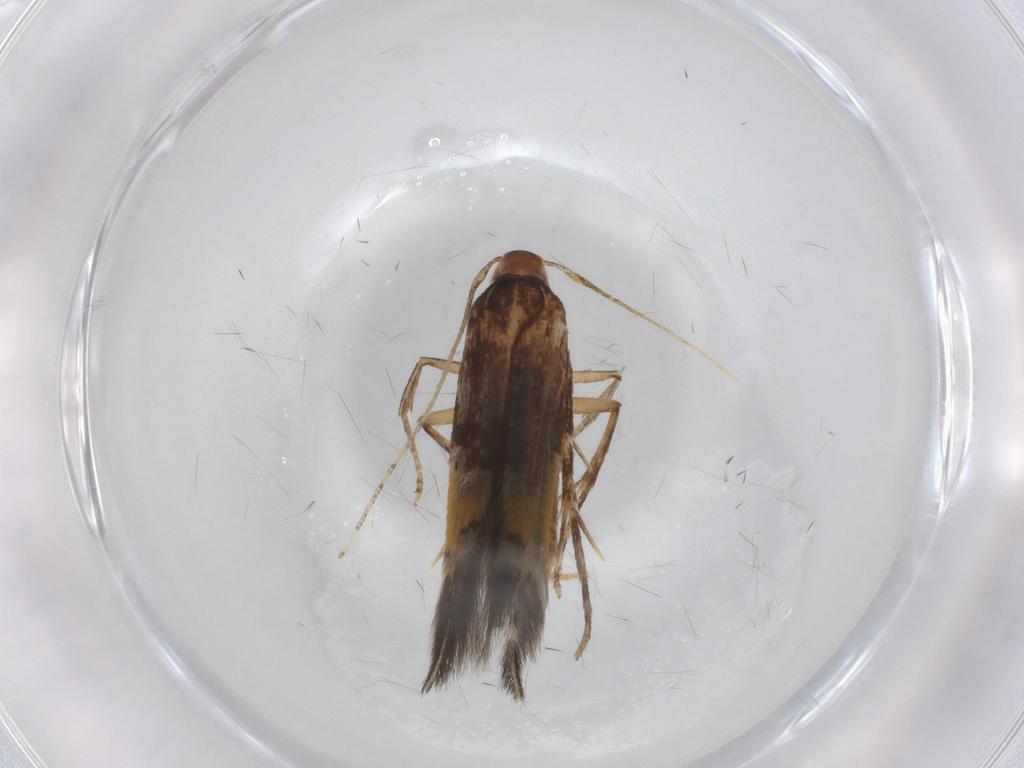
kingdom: Animalia
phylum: Arthropoda
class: Insecta
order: Lepidoptera
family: Cosmopterigidae
